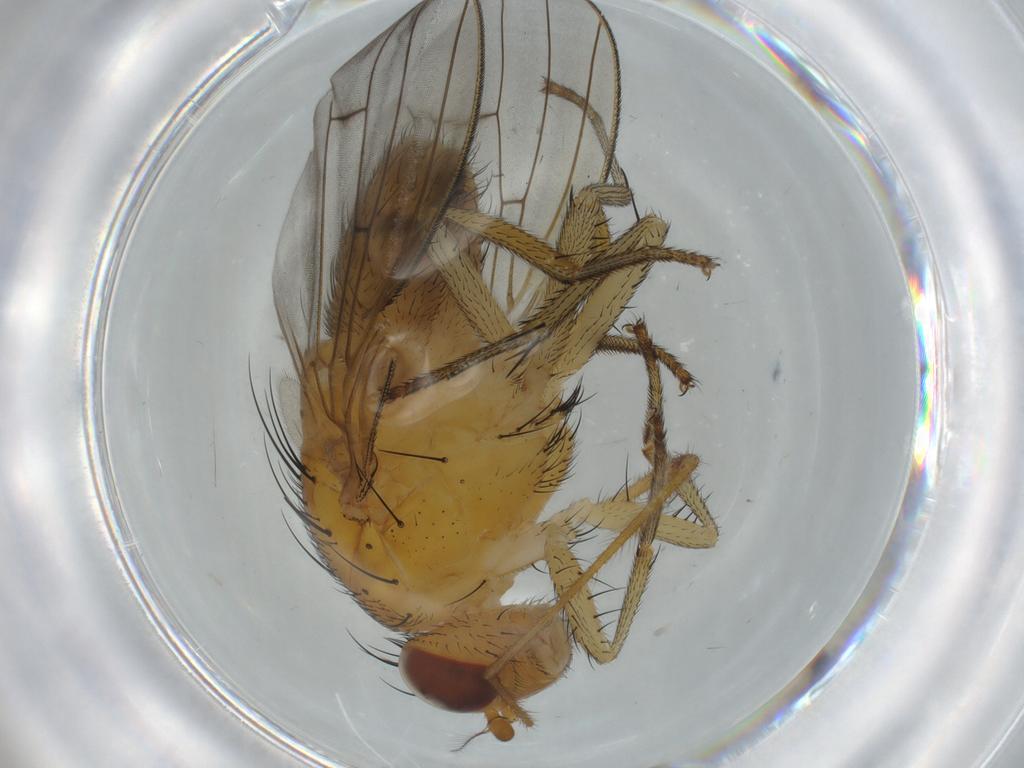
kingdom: Animalia
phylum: Arthropoda
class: Insecta
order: Diptera
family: Limoniidae
